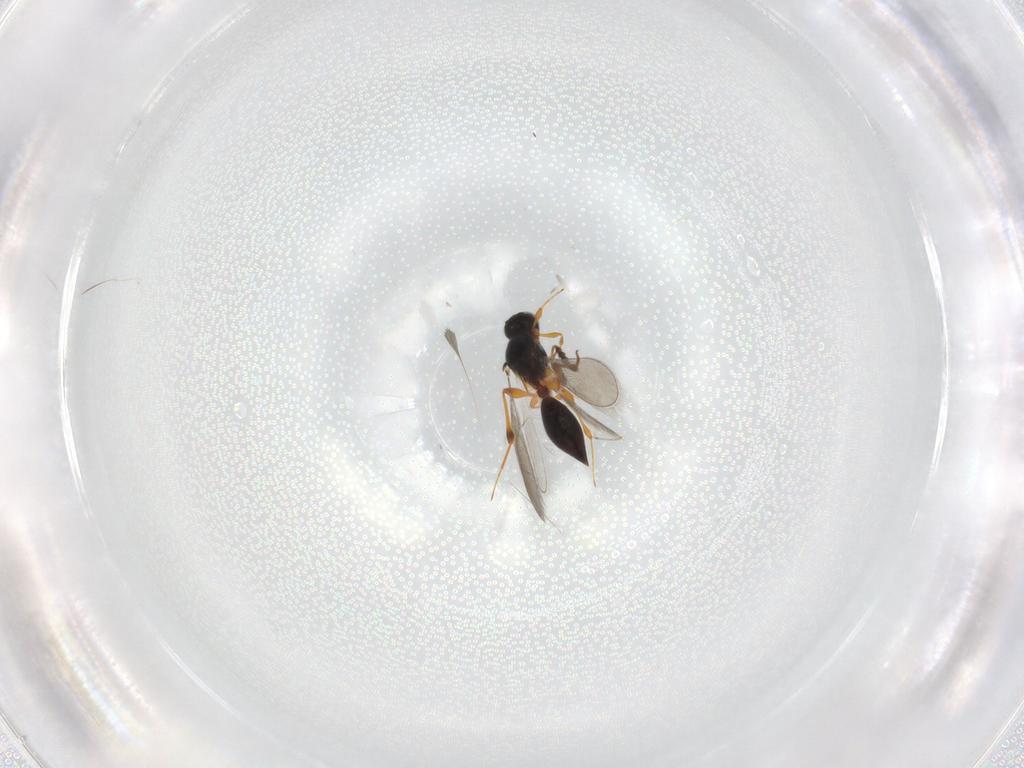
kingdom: Animalia
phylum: Arthropoda
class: Insecta
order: Hymenoptera
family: Platygastridae
